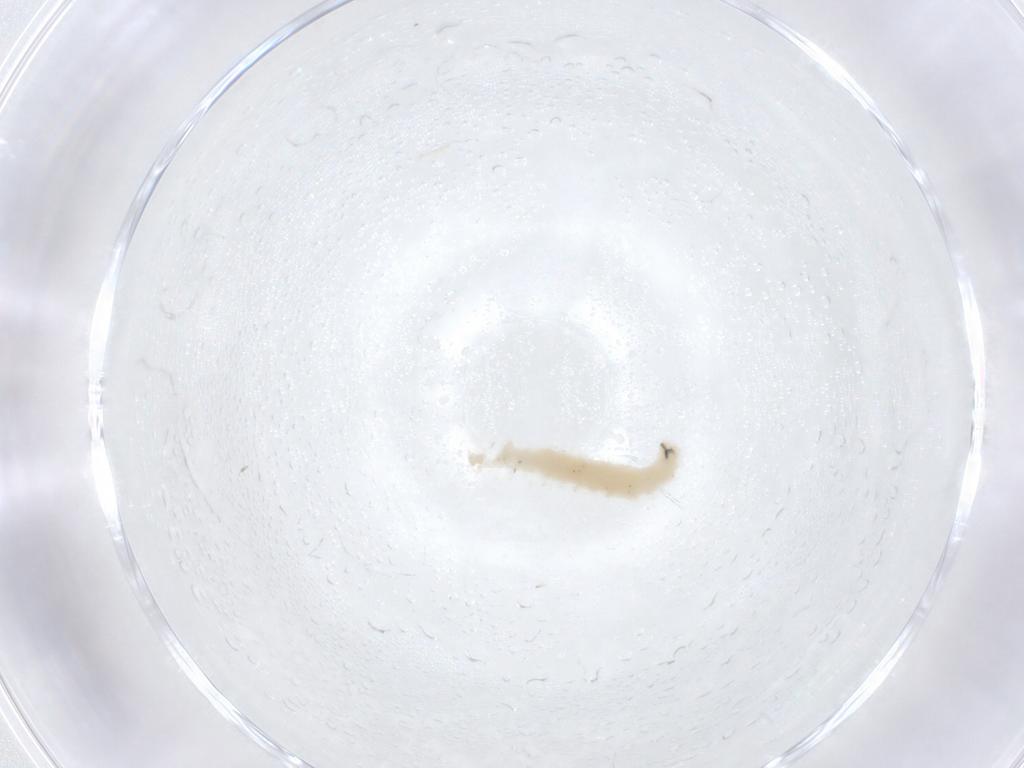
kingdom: Animalia
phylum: Arthropoda
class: Insecta
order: Diptera
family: Phoridae
